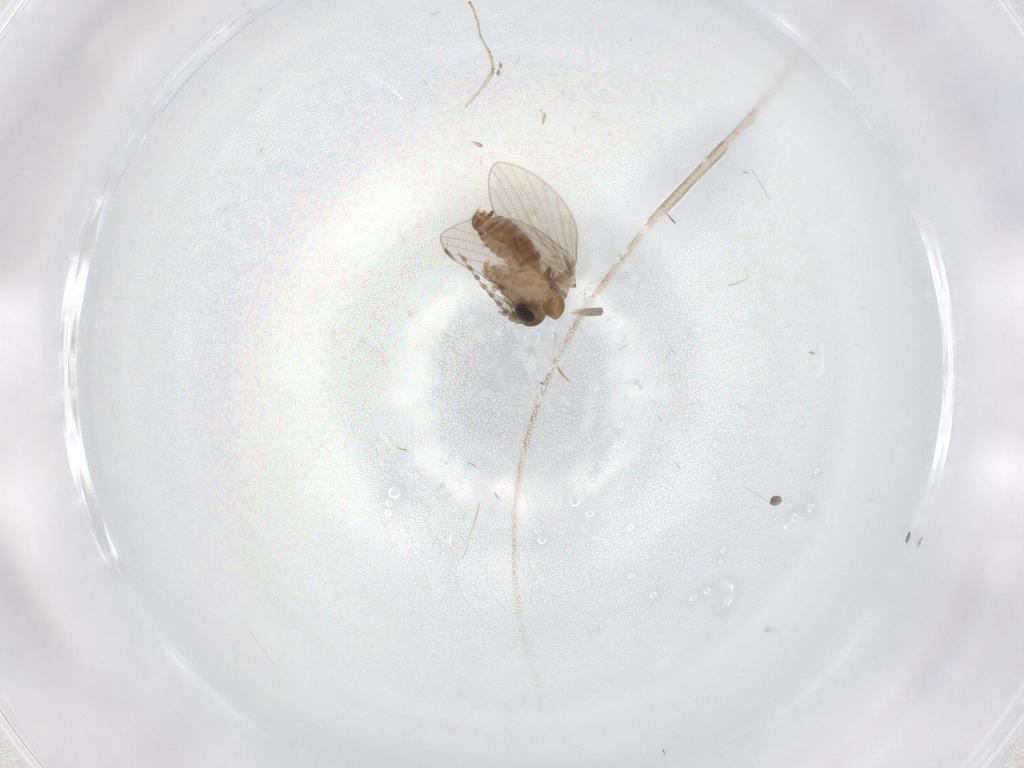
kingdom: Animalia
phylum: Arthropoda
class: Insecta
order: Diptera
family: Psychodidae
